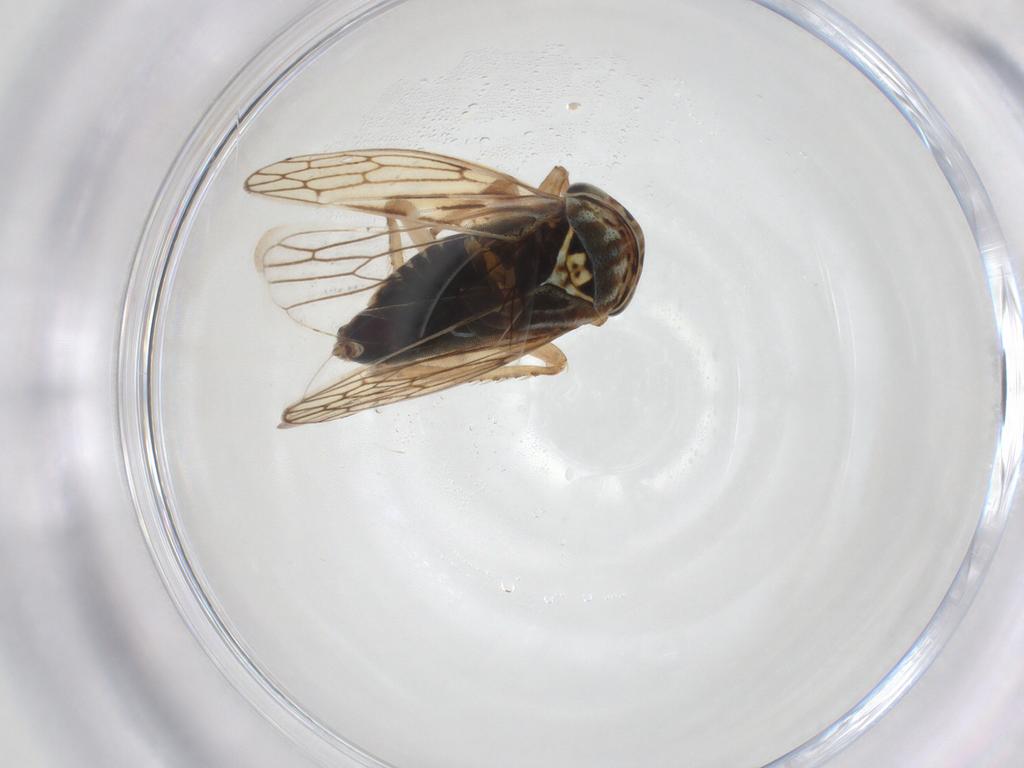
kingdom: Animalia
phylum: Arthropoda
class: Insecta
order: Hemiptera
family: Cicadellidae
